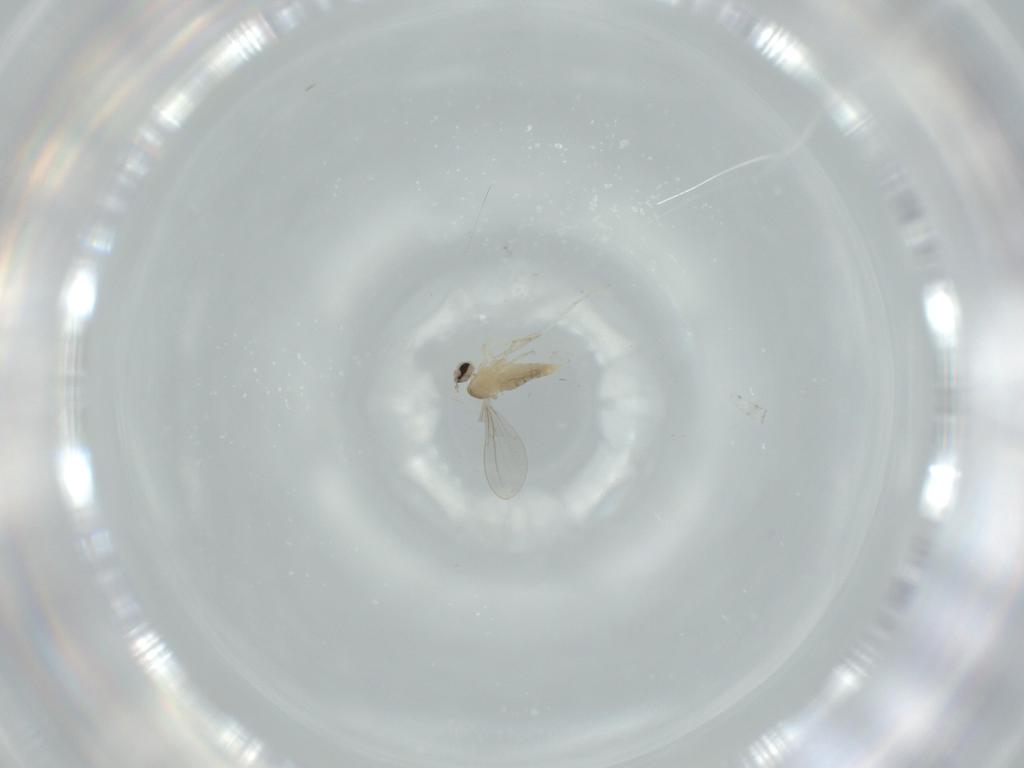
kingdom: Animalia
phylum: Arthropoda
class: Insecta
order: Diptera
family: Cecidomyiidae
